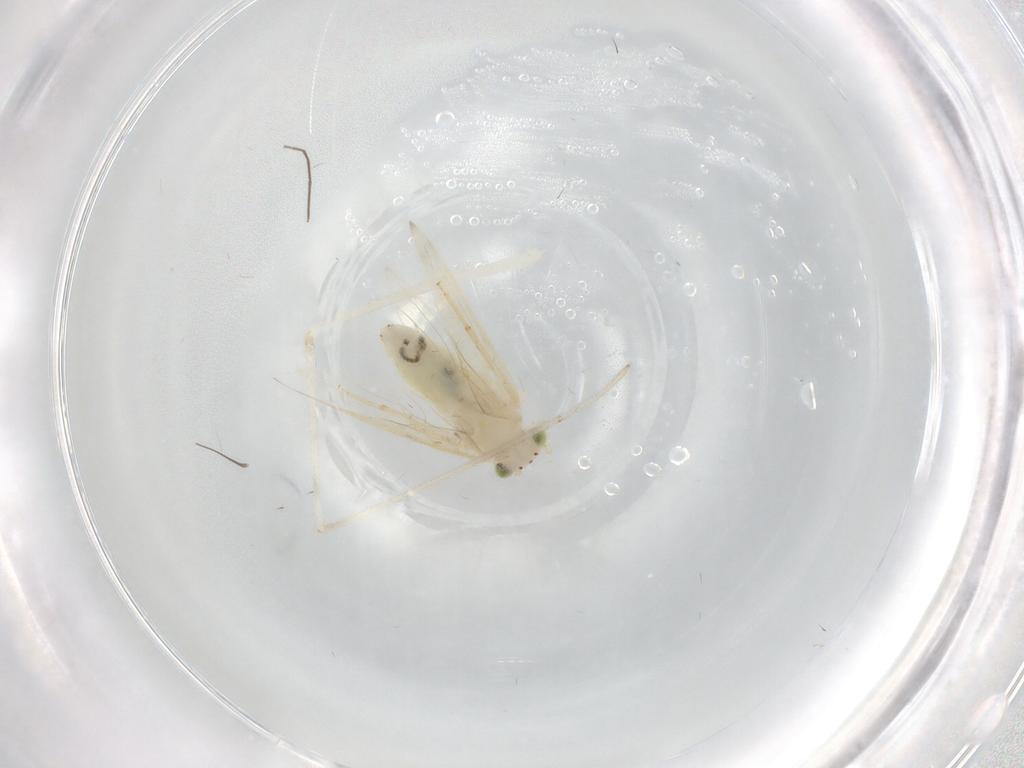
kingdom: Animalia
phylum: Arthropoda
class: Insecta
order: Psocodea
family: Lepidopsocidae
